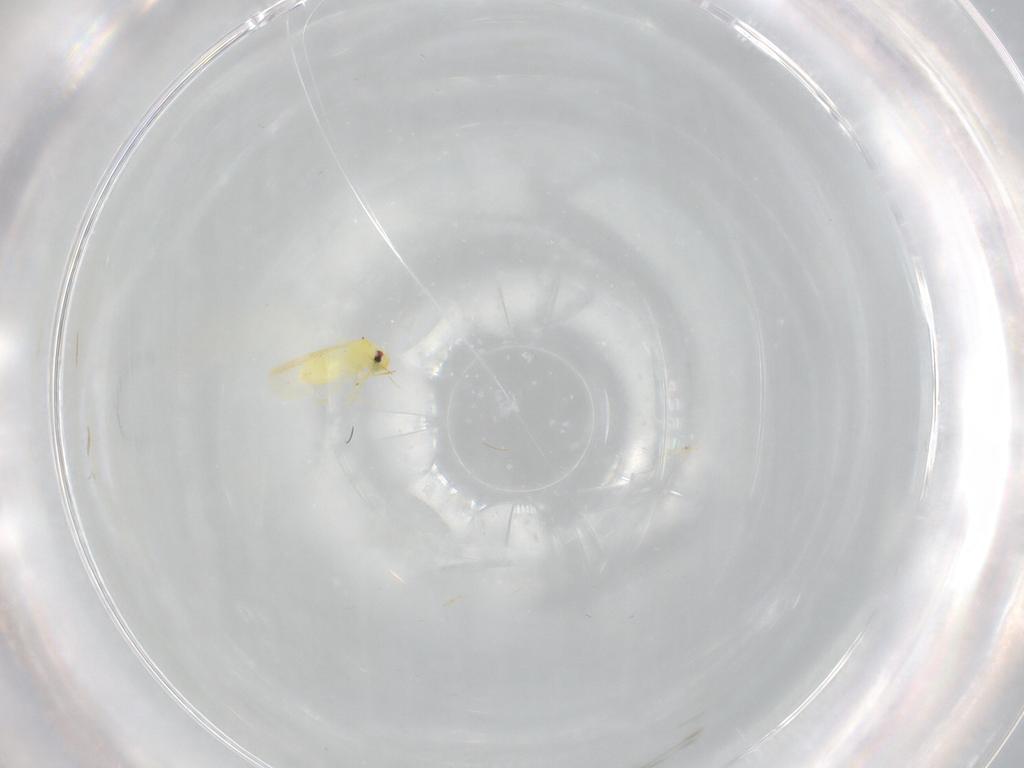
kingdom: Animalia
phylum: Arthropoda
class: Insecta
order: Hemiptera
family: Aleyrodidae
